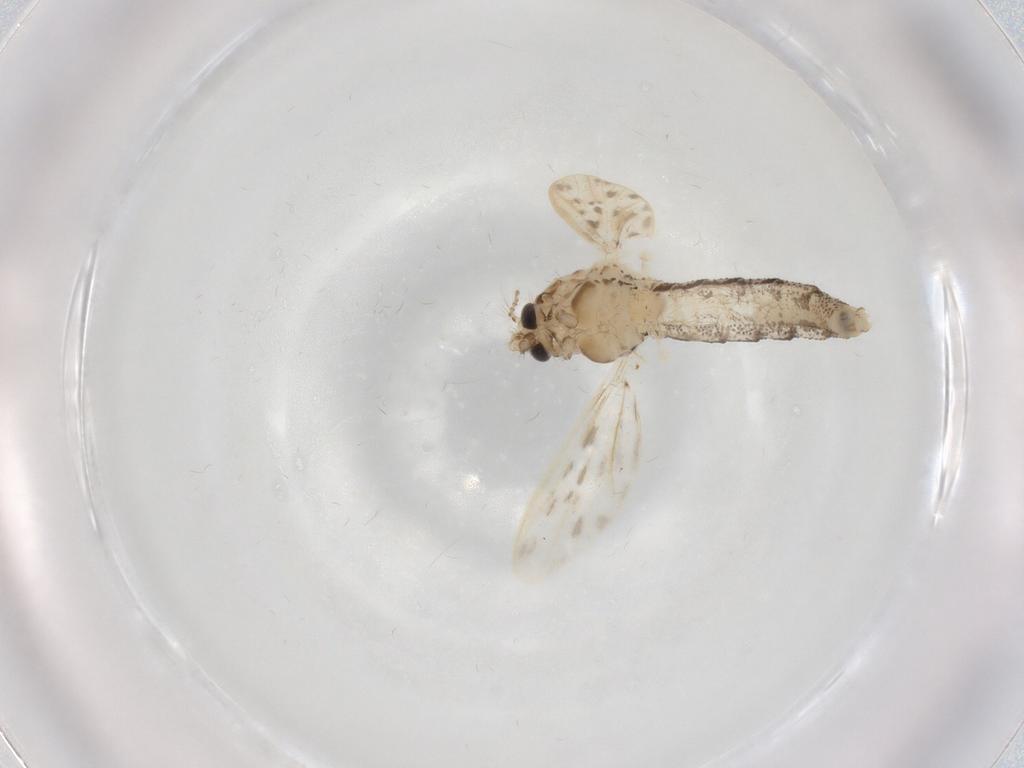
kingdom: Animalia
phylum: Arthropoda
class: Insecta
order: Diptera
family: Chaoboridae
